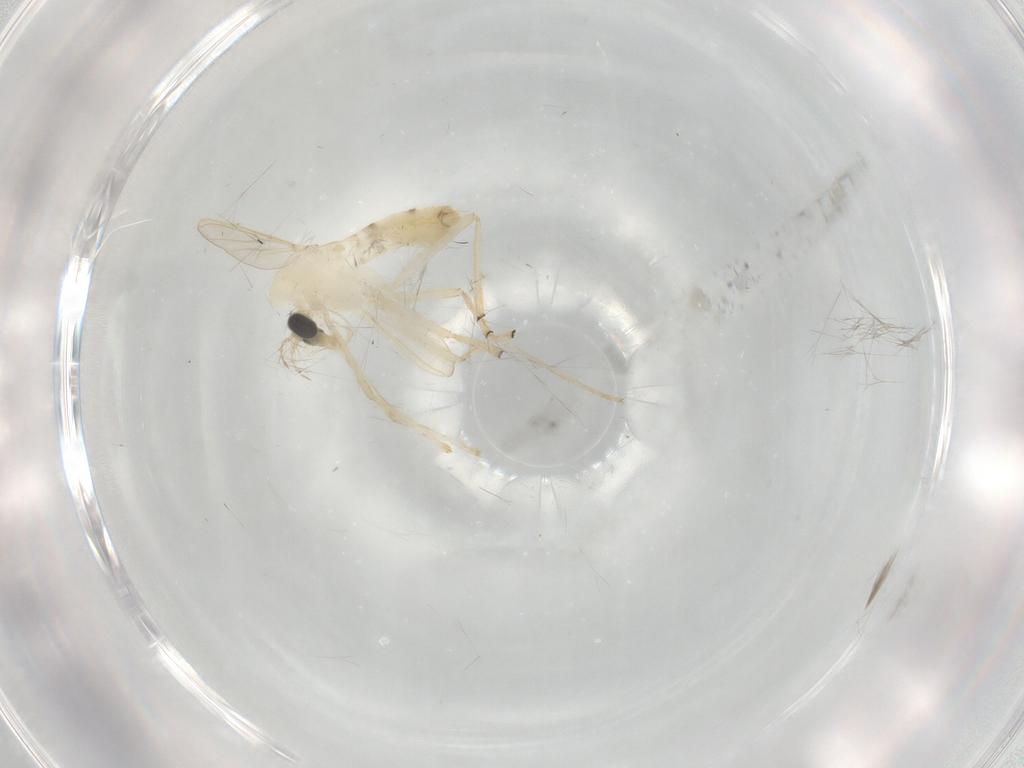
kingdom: Animalia
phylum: Arthropoda
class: Insecta
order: Diptera
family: Chironomidae
